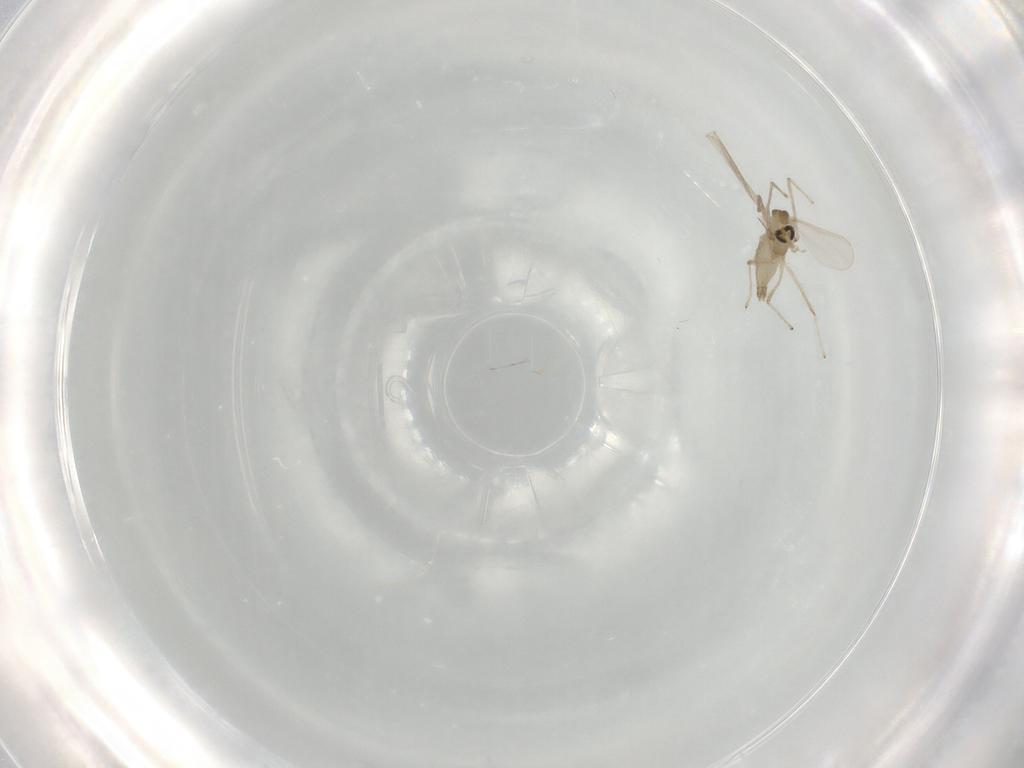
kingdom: Animalia
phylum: Arthropoda
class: Insecta
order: Diptera
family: Chironomidae
